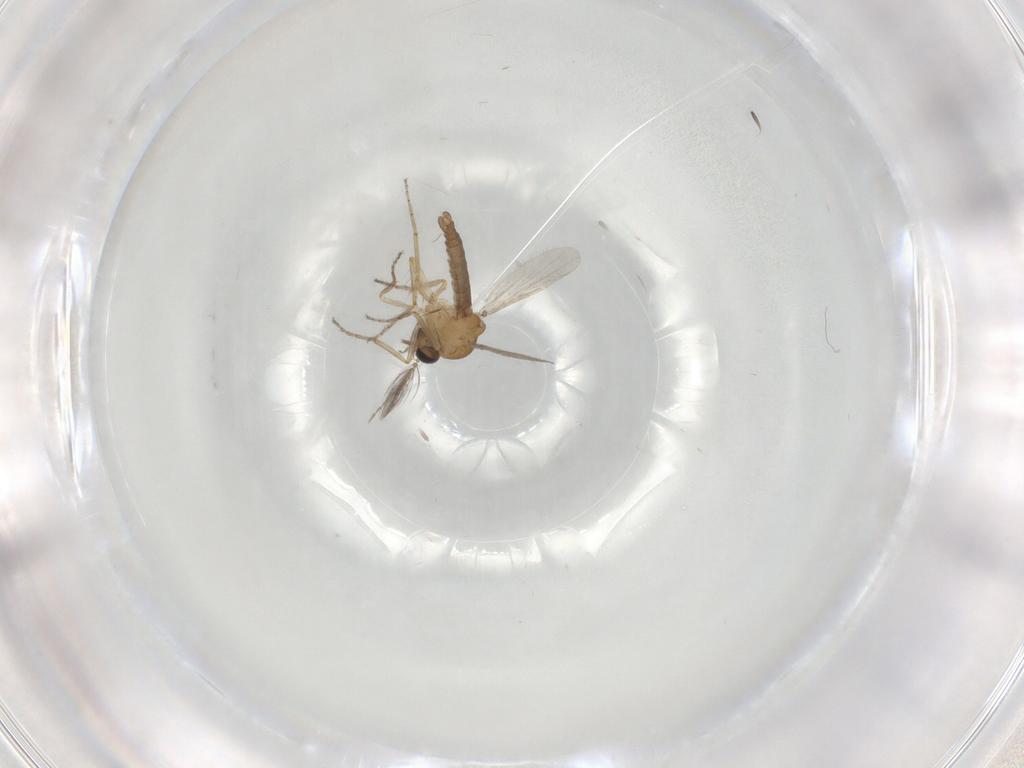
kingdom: Animalia
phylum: Arthropoda
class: Insecta
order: Diptera
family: Ceratopogonidae
